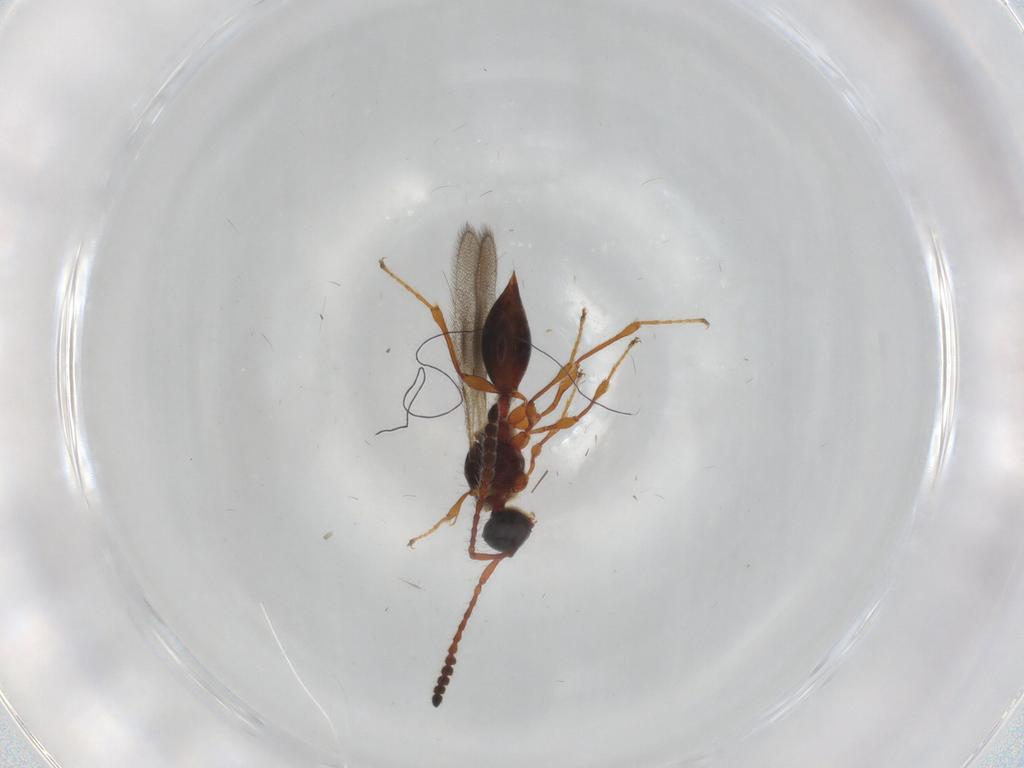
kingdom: Animalia
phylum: Arthropoda
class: Insecta
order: Hymenoptera
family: Diapriidae
